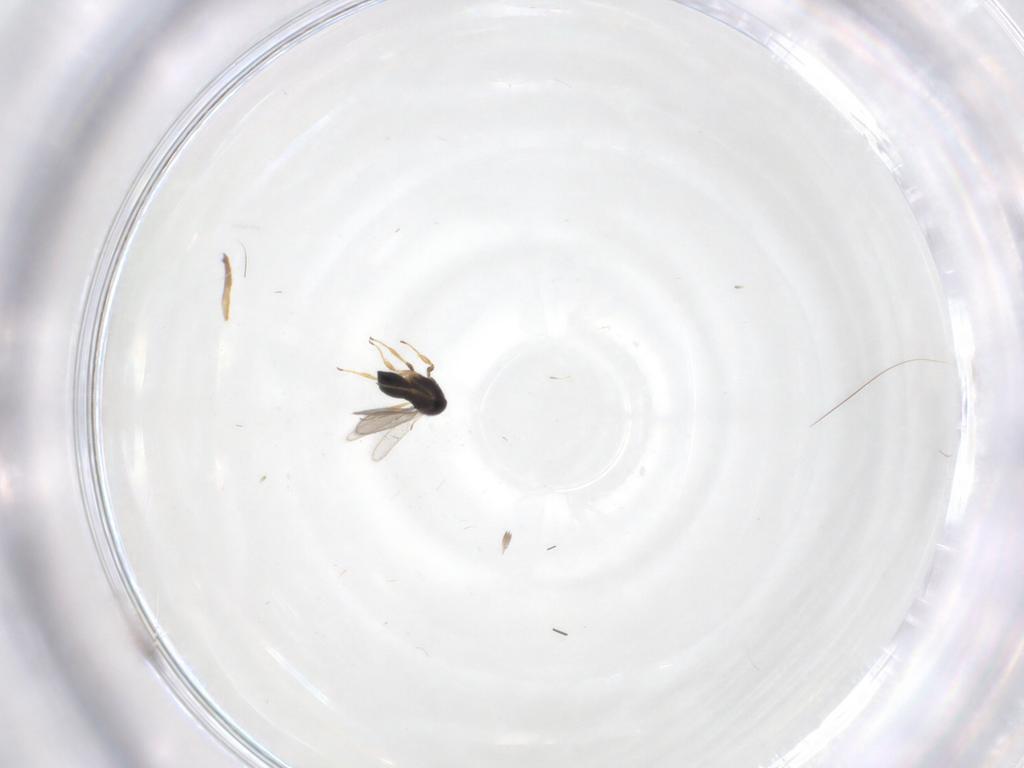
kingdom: Animalia
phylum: Arthropoda
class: Insecta
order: Hymenoptera
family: Scelionidae
